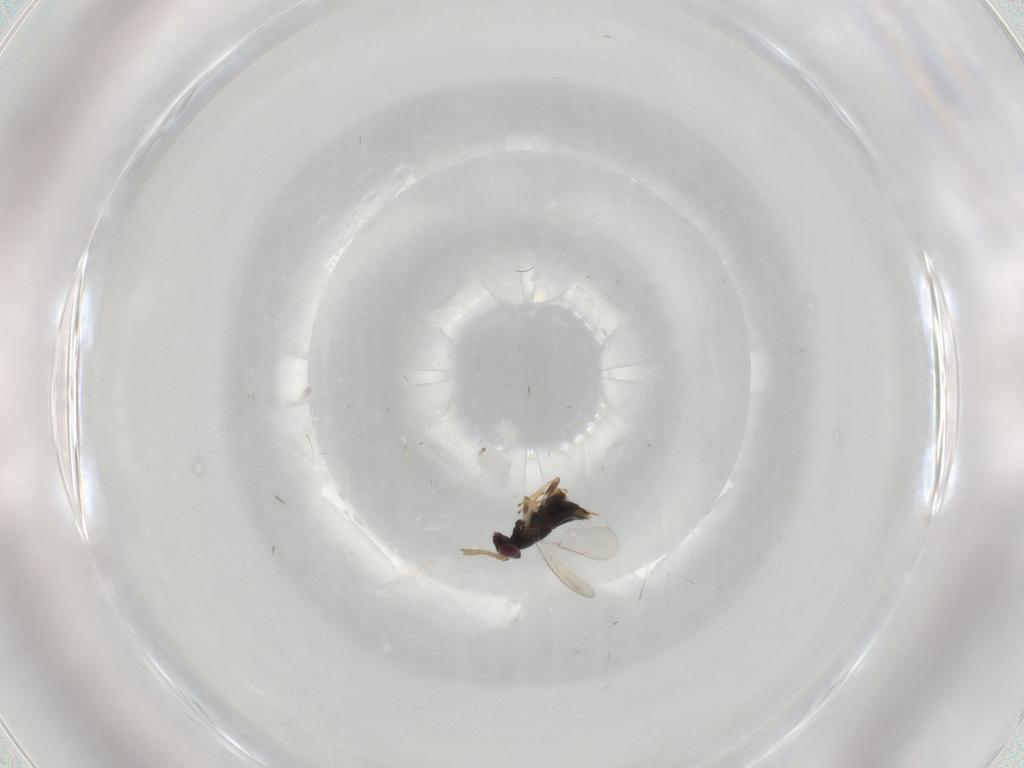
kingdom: Animalia
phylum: Arthropoda
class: Insecta
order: Hymenoptera
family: Aphelinidae
